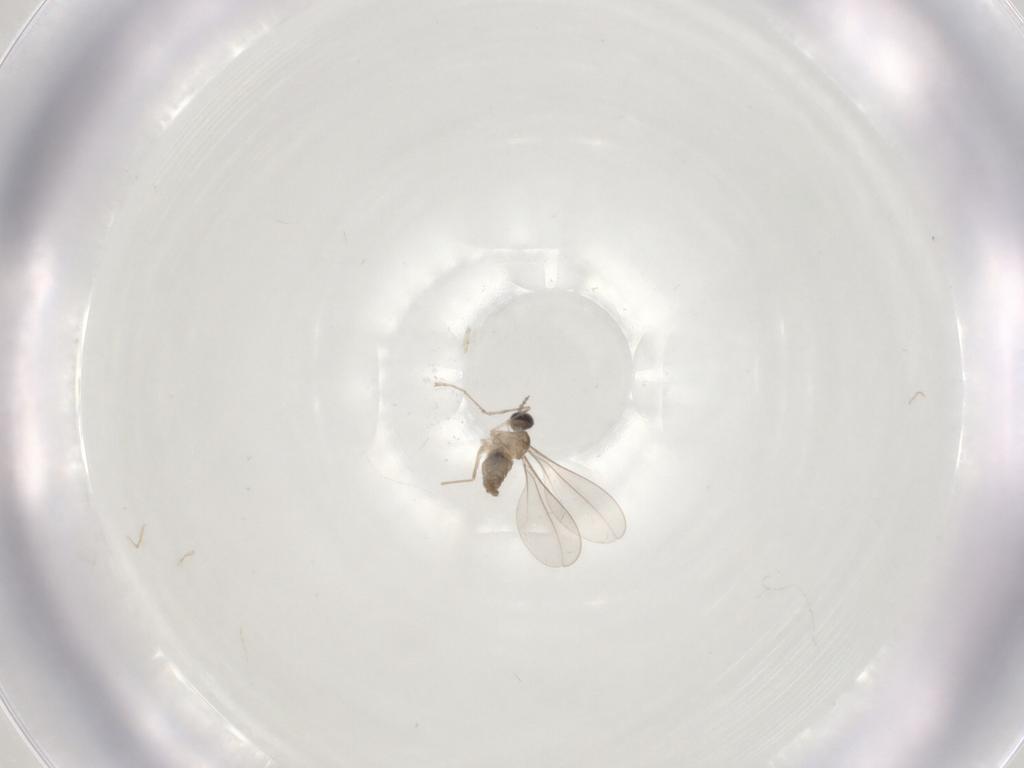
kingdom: Animalia
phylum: Arthropoda
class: Insecta
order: Diptera
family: Cecidomyiidae
